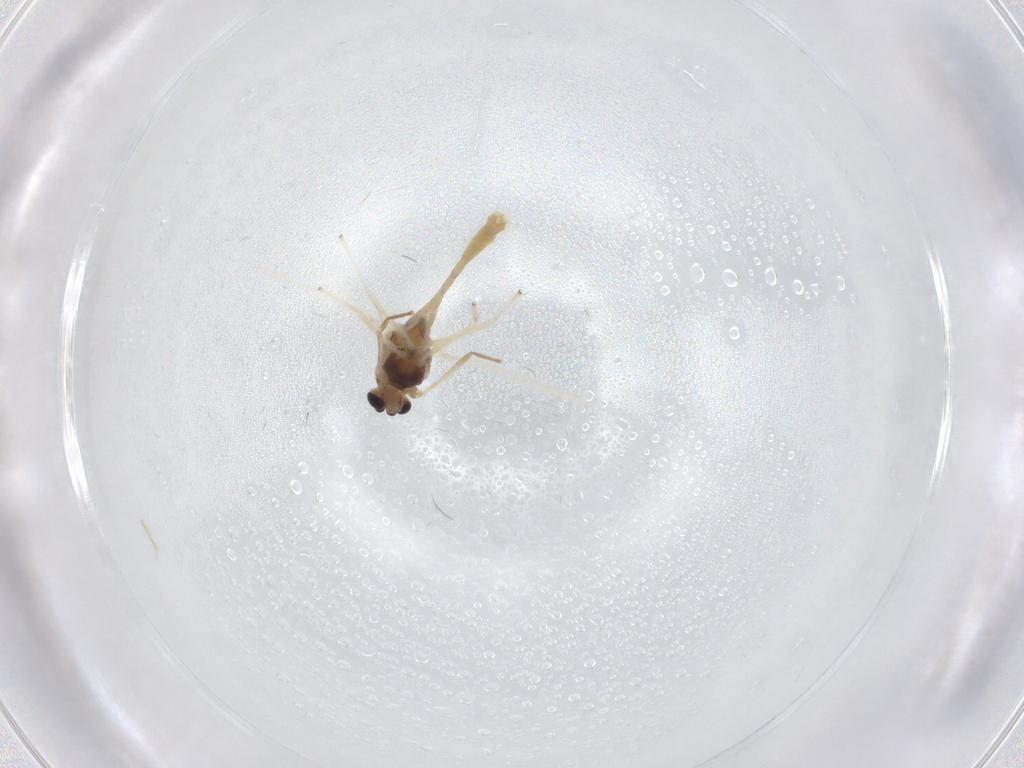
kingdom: Animalia
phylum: Arthropoda
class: Insecta
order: Diptera
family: Chironomidae
